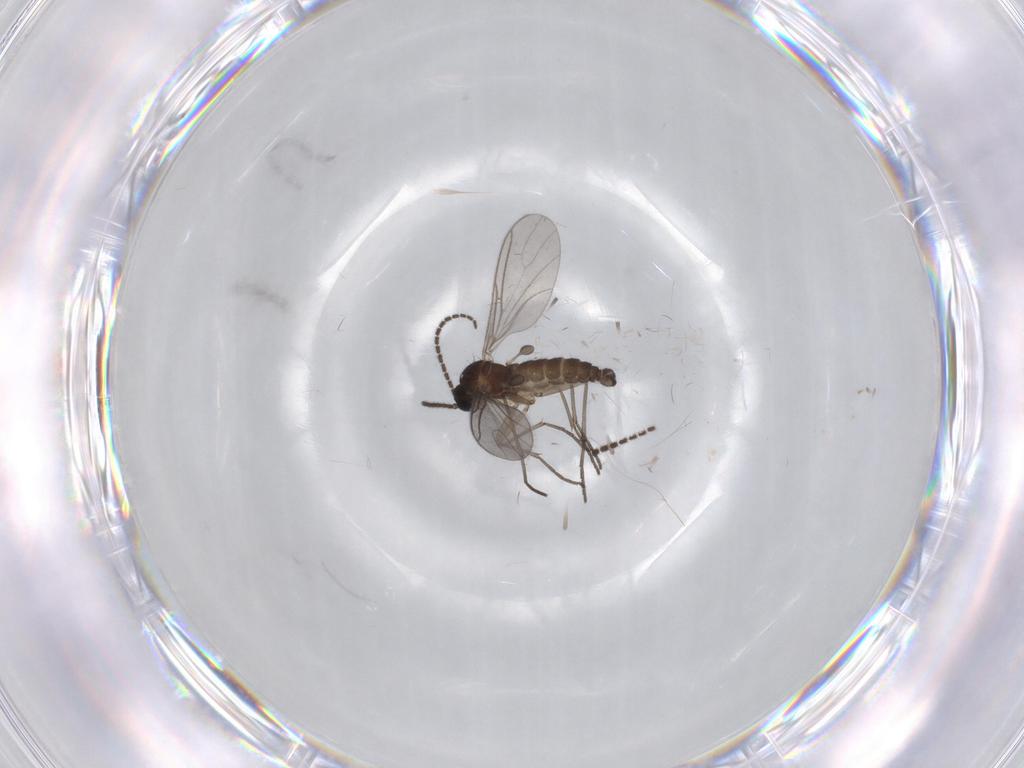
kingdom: Animalia
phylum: Arthropoda
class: Insecta
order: Diptera
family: Sciaridae
